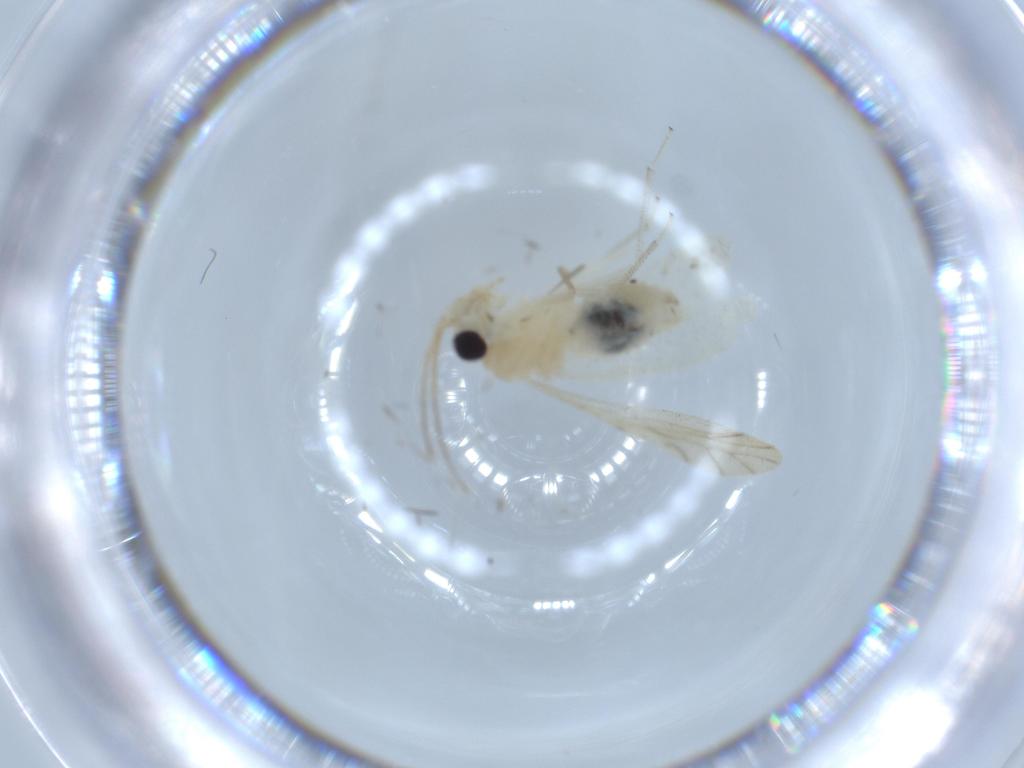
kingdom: Animalia
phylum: Arthropoda
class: Insecta
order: Psocodea
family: Caeciliusidae
